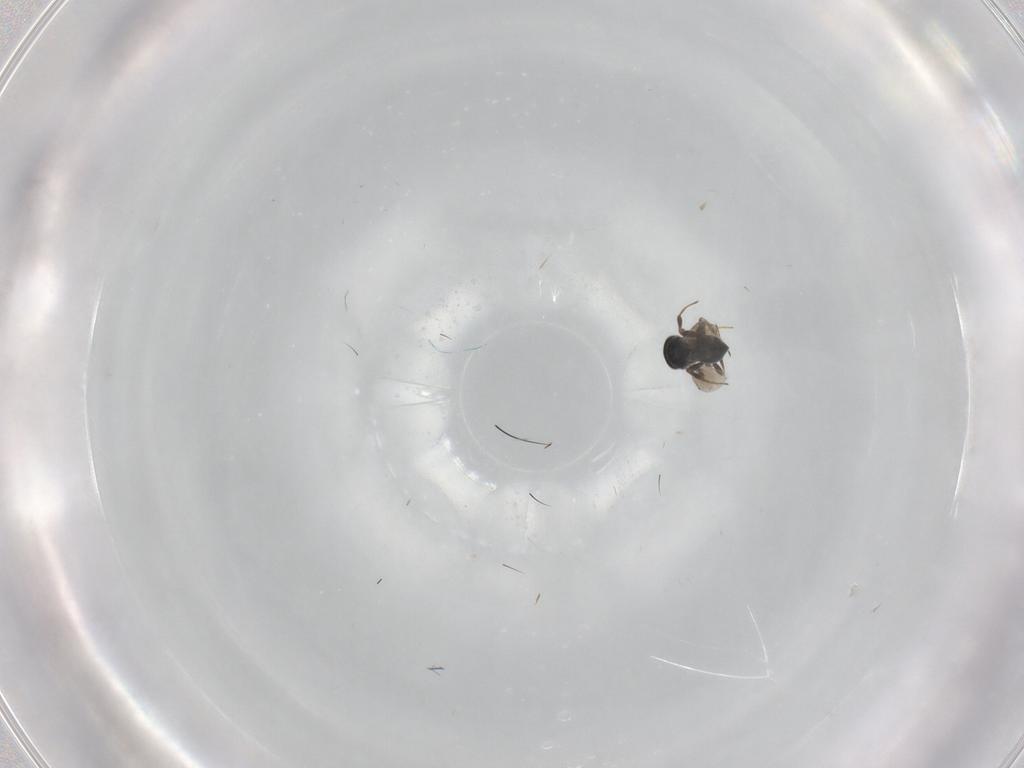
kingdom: Animalia
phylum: Arthropoda
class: Insecta
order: Hymenoptera
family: Platygastridae
